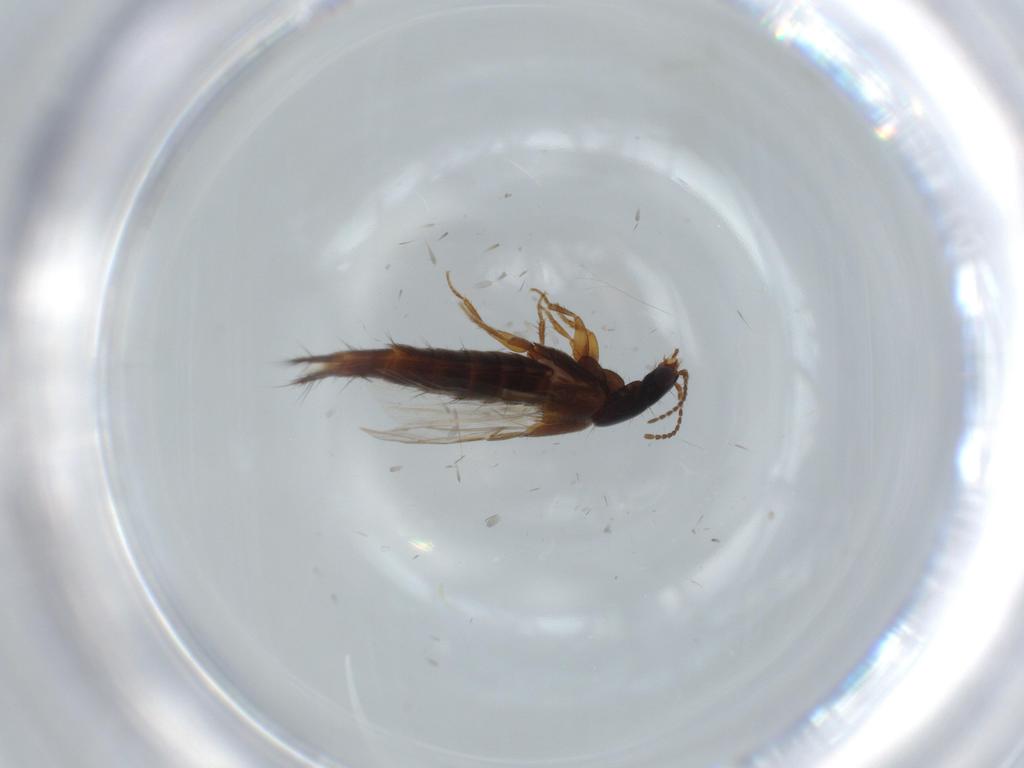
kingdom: Animalia
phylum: Arthropoda
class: Insecta
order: Coleoptera
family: Staphylinidae
